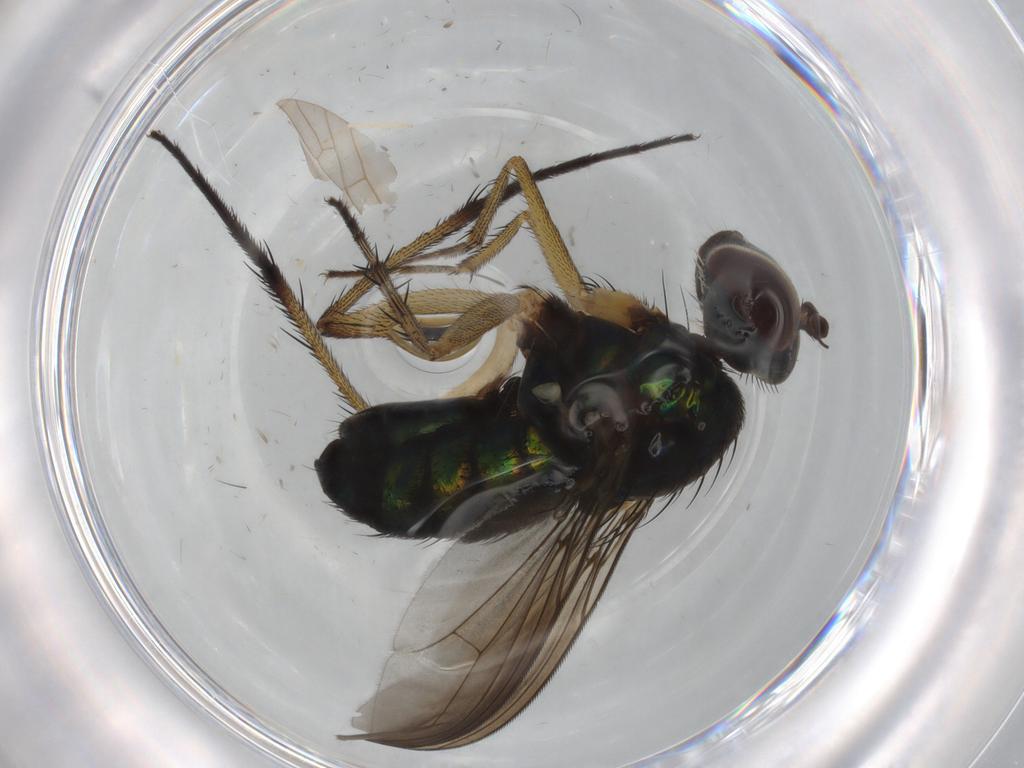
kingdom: Animalia
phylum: Arthropoda
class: Insecta
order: Diptera
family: Dolichopodidae
